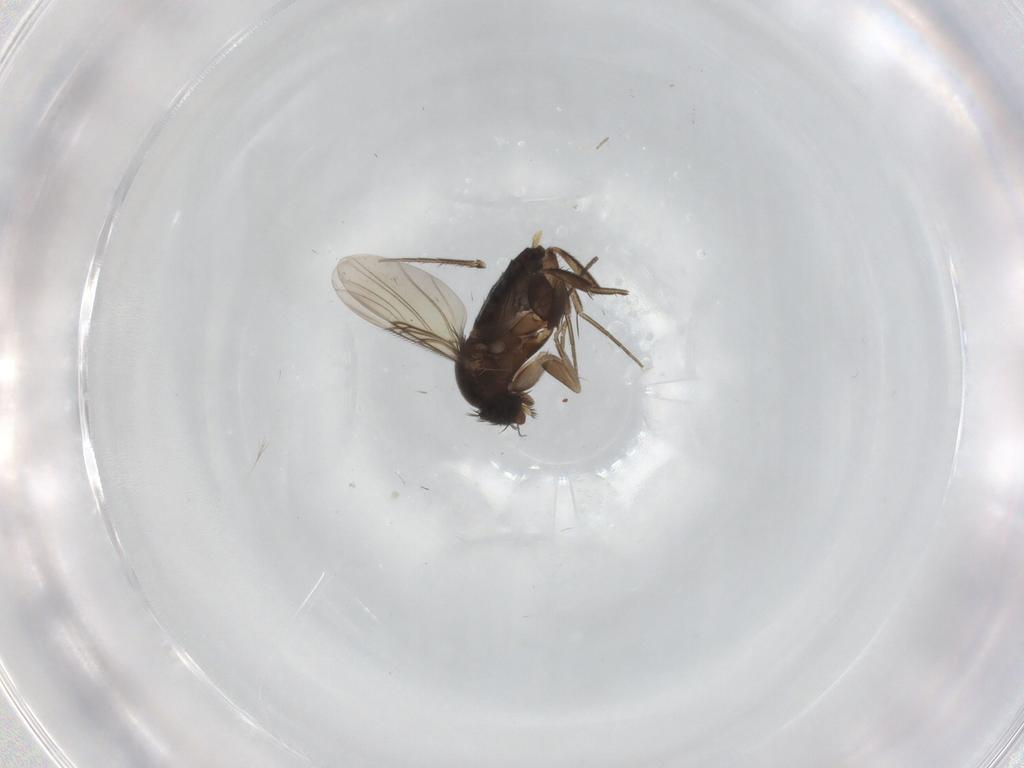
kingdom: Animalia
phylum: Arthropoda
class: Insecta
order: Diptera
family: Phoridae
